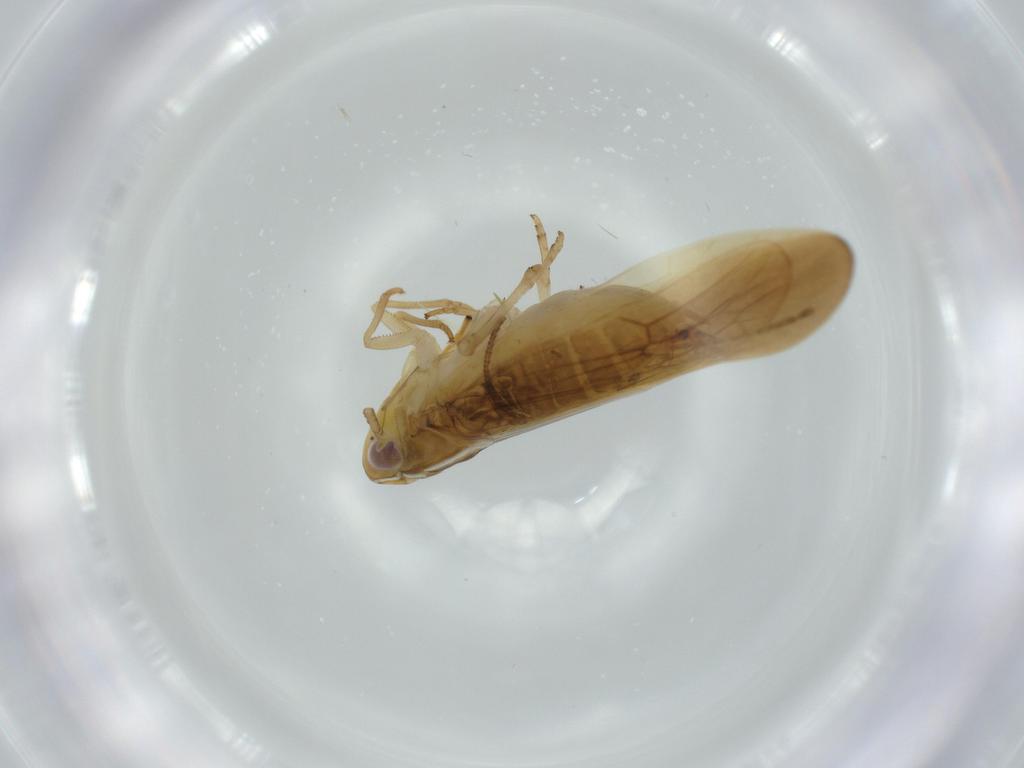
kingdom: Animalia
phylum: Arthropoda
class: Insecta
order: Hemiptera
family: Delphacidae
